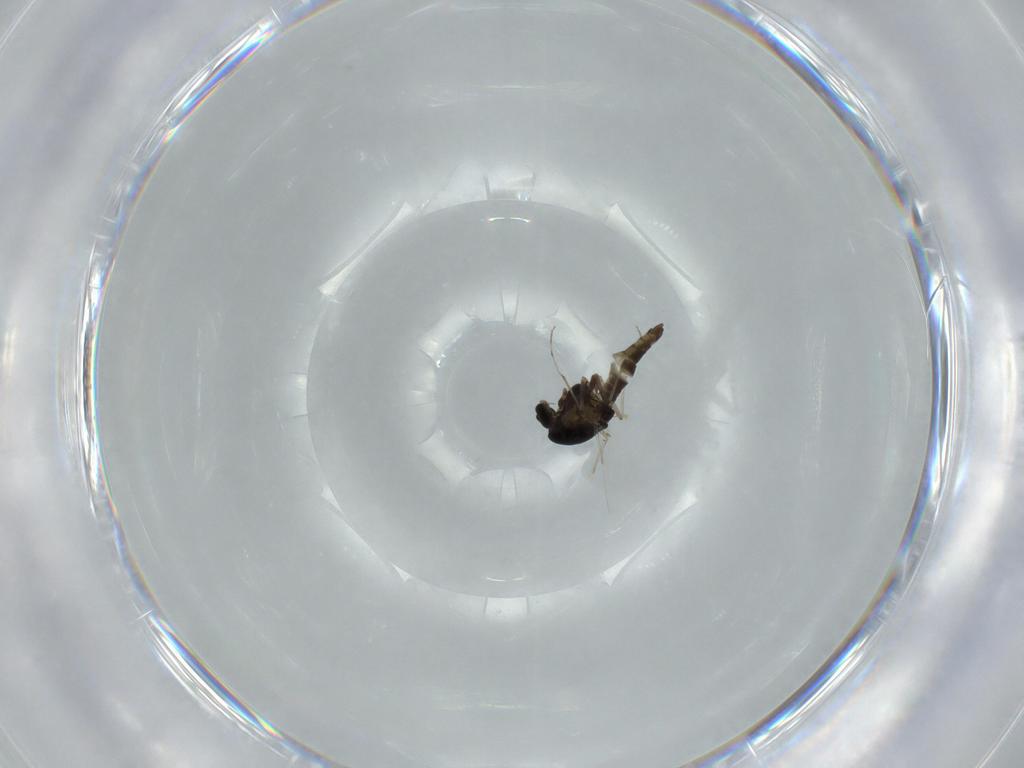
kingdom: Animalia
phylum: Arthropoda
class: Insecta
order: Diptera
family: Chironomidae
